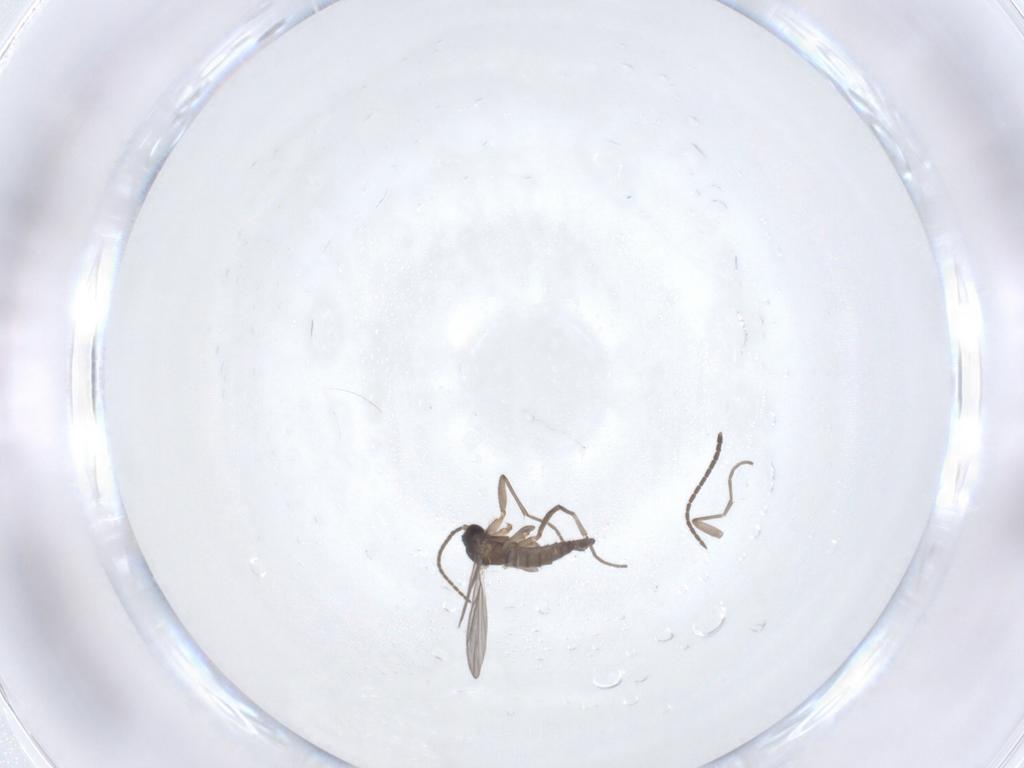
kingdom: Animalia
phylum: Arthropoda
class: Insecta
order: Diptera
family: Sciaridae
